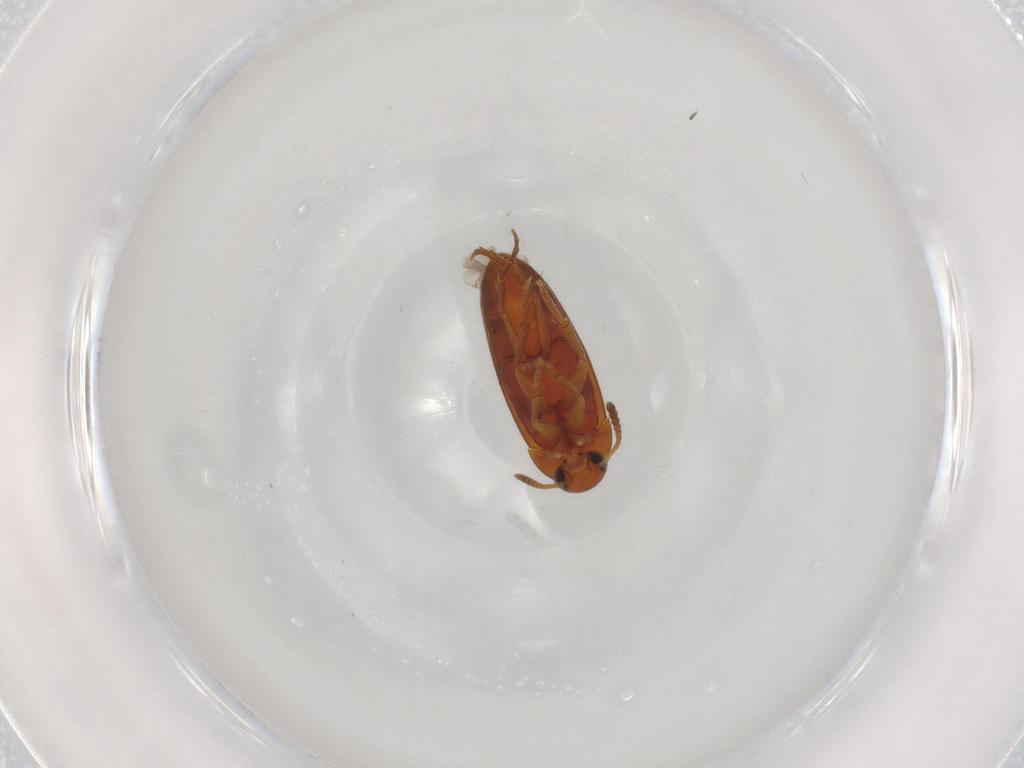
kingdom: Animalia
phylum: Arthropoda
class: Insecta
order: Coleoptera
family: Scraptiidae
